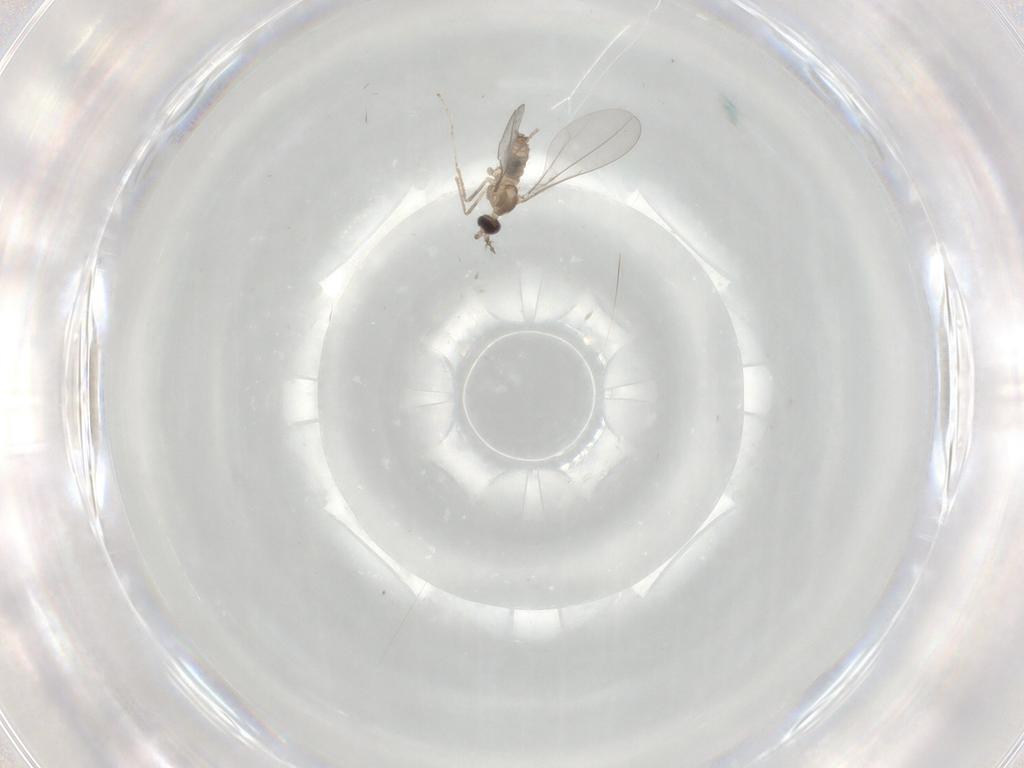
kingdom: Animalia
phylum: Arthropoda
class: Insecta
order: Diptera
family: Cecidomyiidae
